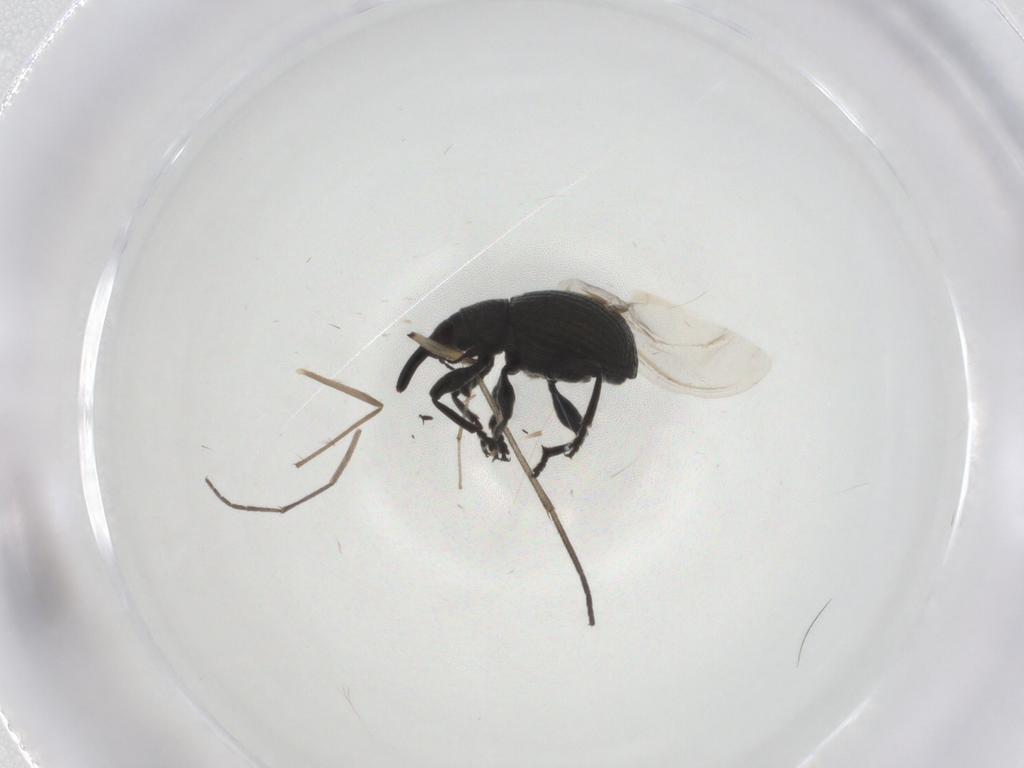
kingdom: Animalia
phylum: Arthropoda
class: Insecta
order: Coleoptera
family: Brentidae
